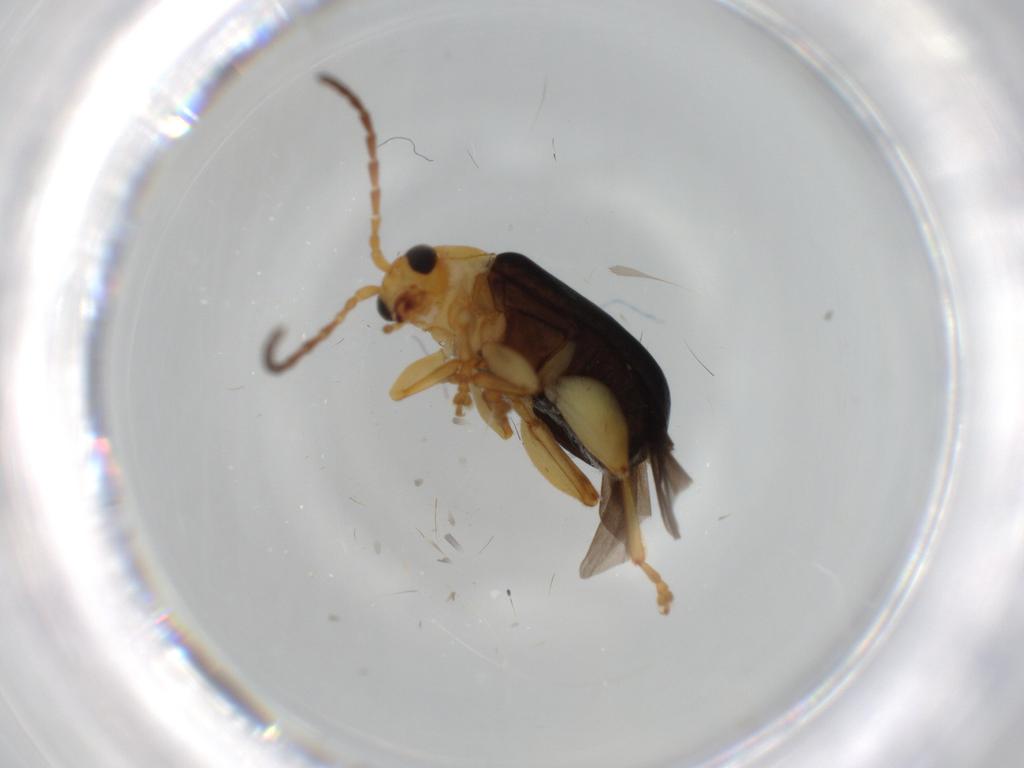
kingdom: Animalia
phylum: Arthropoda
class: Insecta
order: Coleoptera
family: Chrysomelidae
